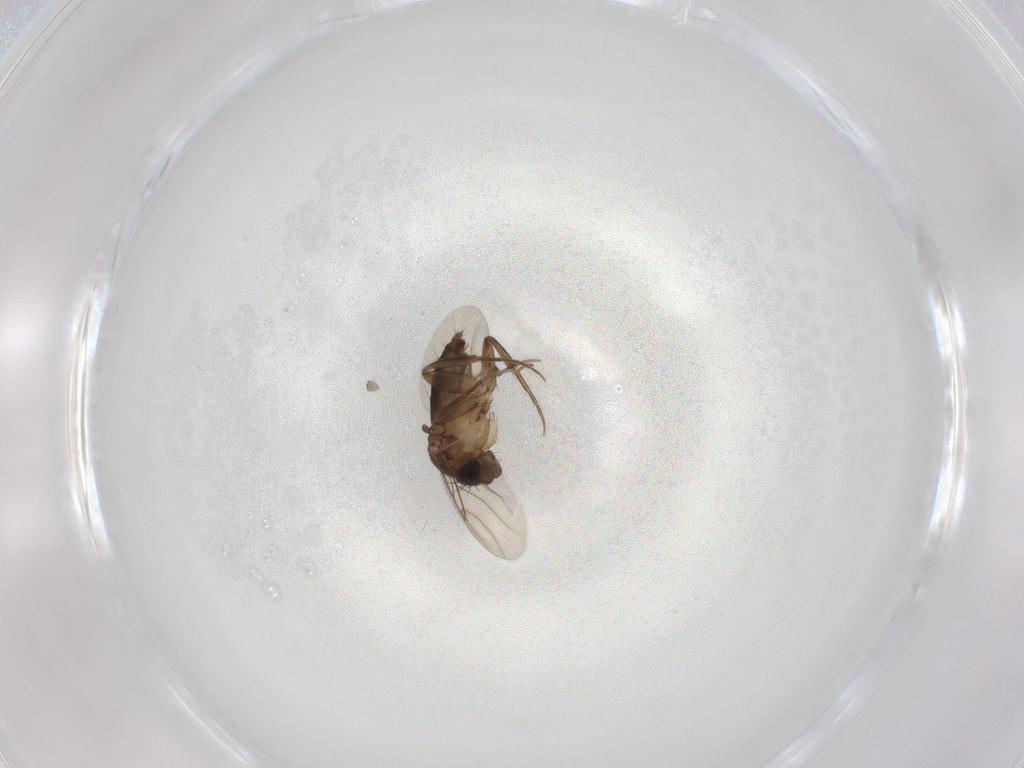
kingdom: Animalia
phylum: Arthropoda
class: Insecta
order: Diptera
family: Phoridae
